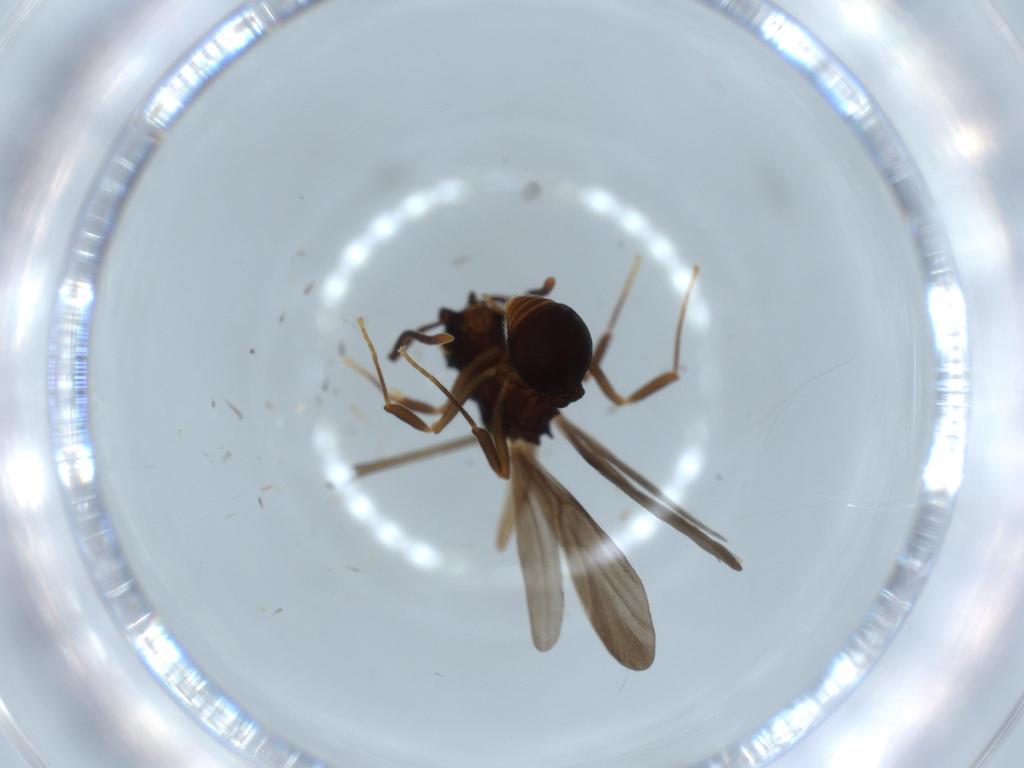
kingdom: Animalia
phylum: Arthropoda
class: Insecta
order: Hymenoptera
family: Formicidae
